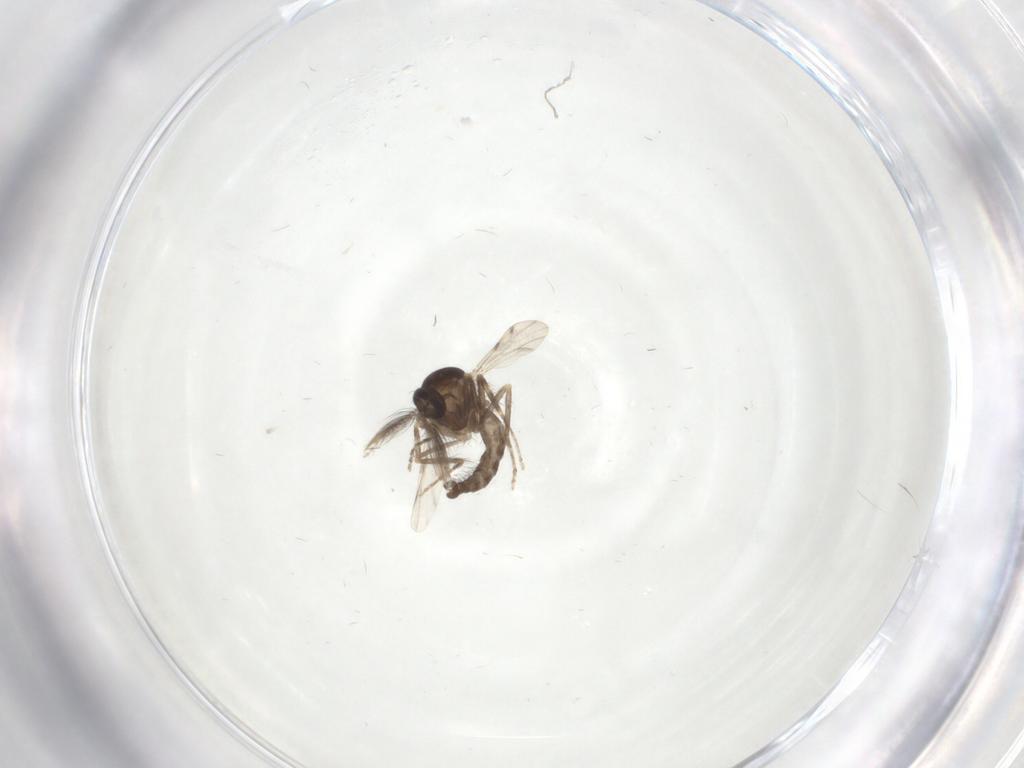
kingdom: Animalia
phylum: Arthropoda
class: Insecta
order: Diptera
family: Ceratopogonidae
